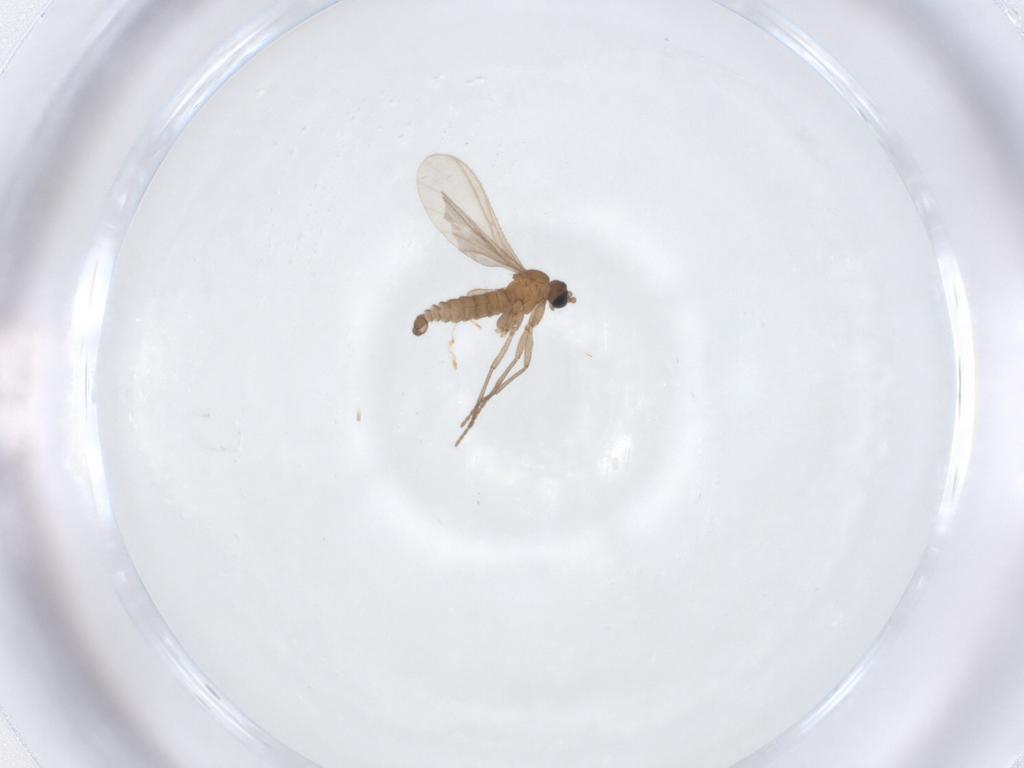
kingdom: Animalia
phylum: Arthropoda
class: Insecta
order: Diptera
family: Sciaridae
